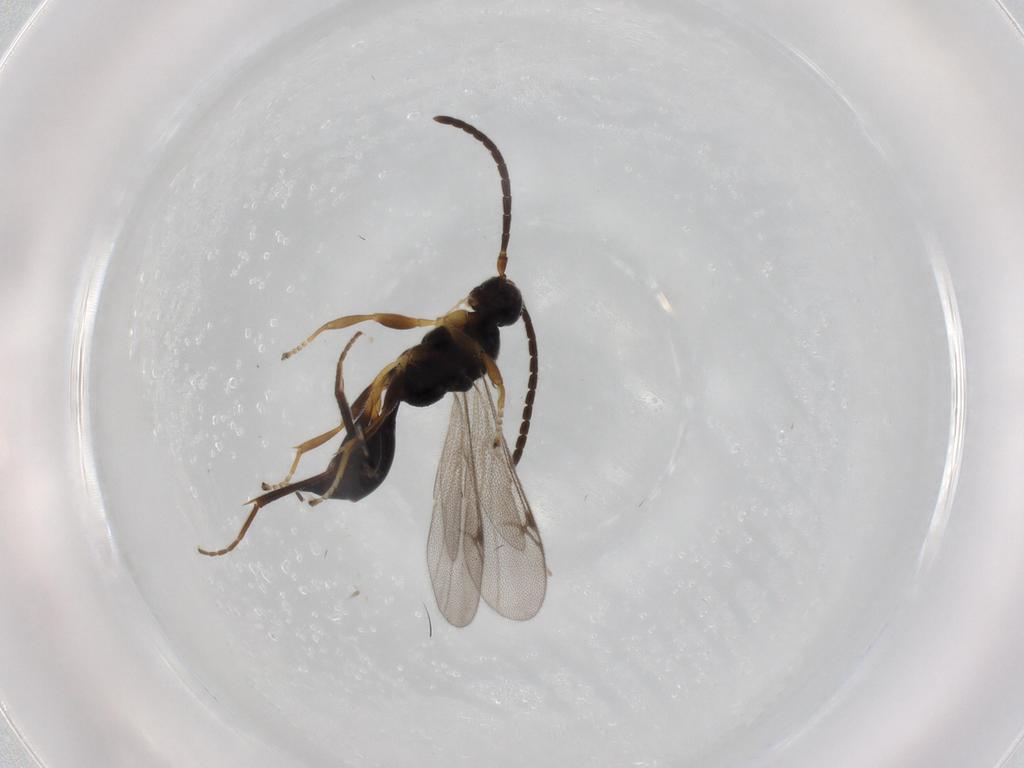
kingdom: Animalia
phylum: Arthropoda
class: Insecta
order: Hymenoptera
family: Proctotrupidae
